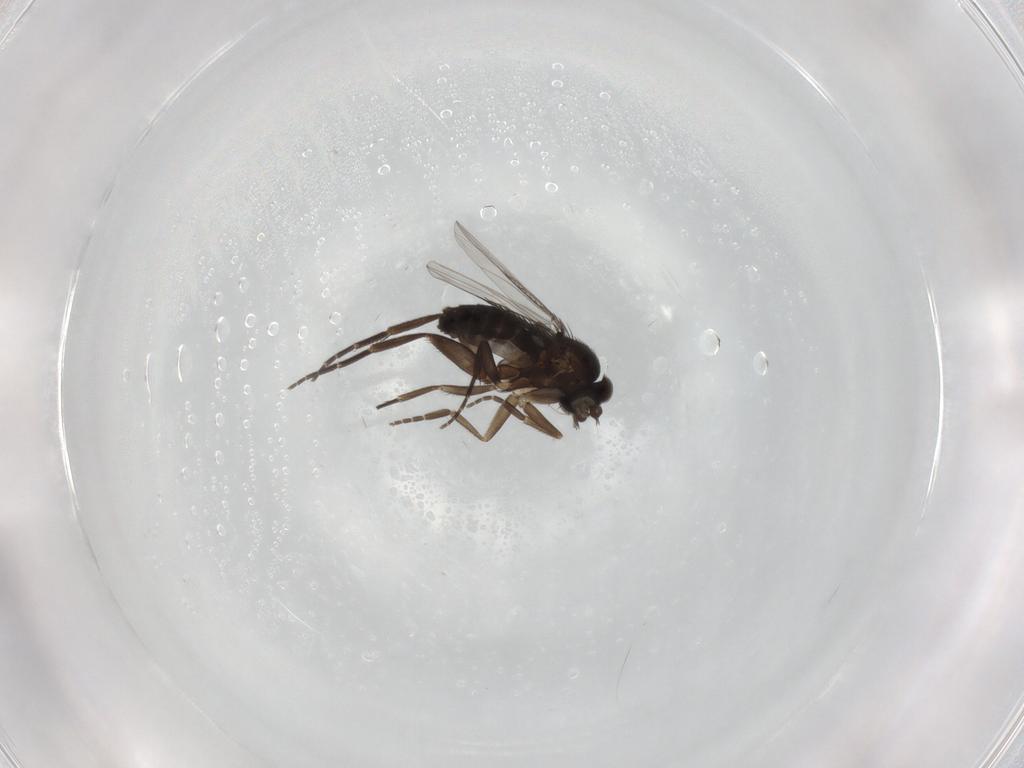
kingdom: Animalia
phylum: Arthropoda
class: Insecta
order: Diptera
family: Phoridae
